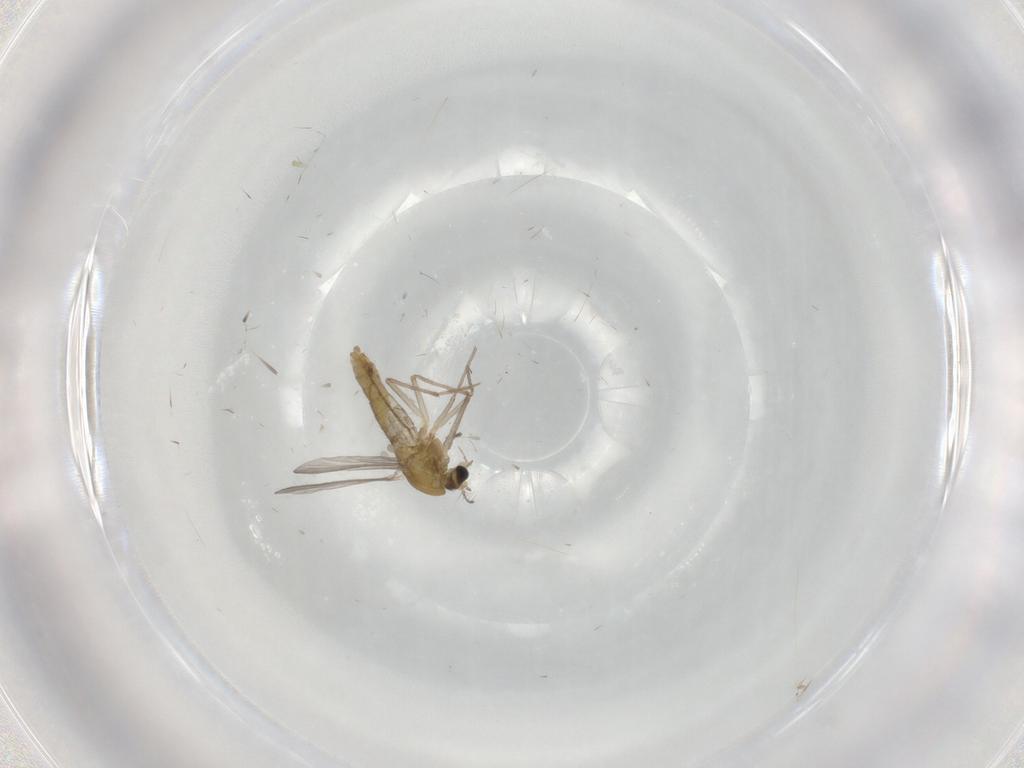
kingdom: Animalia
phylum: Arthropoda
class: Insecta
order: Diptera
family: Chironomidae
